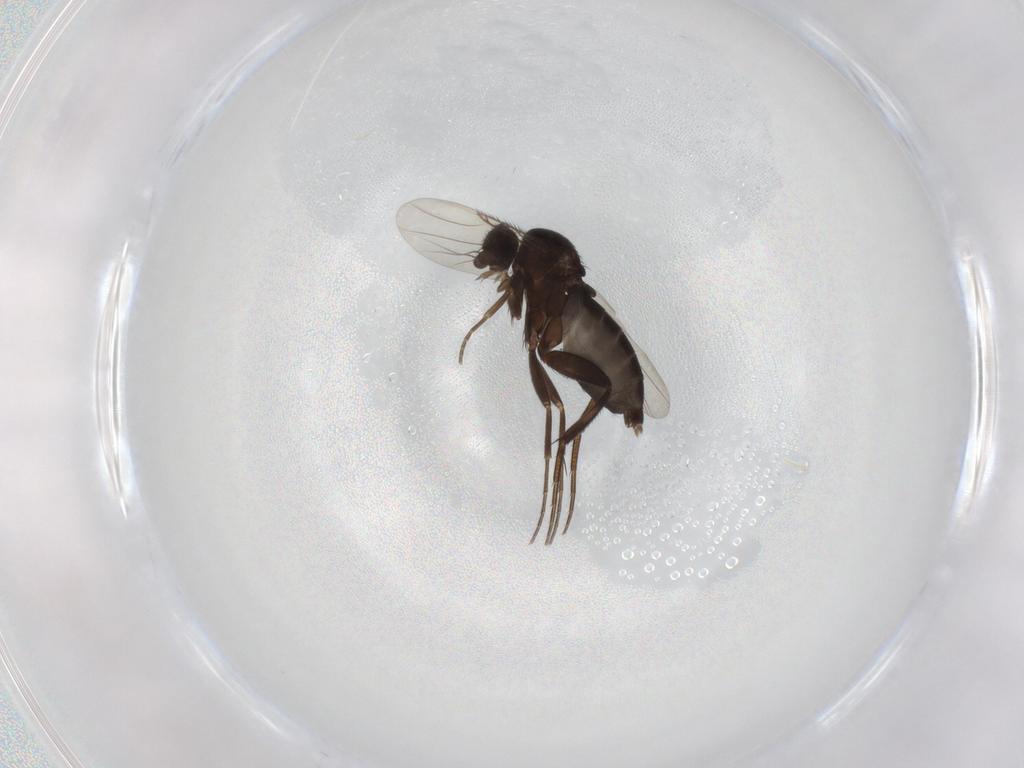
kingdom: Animalia
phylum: Arthropoda
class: Insecta
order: Diptera
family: Phoridae
